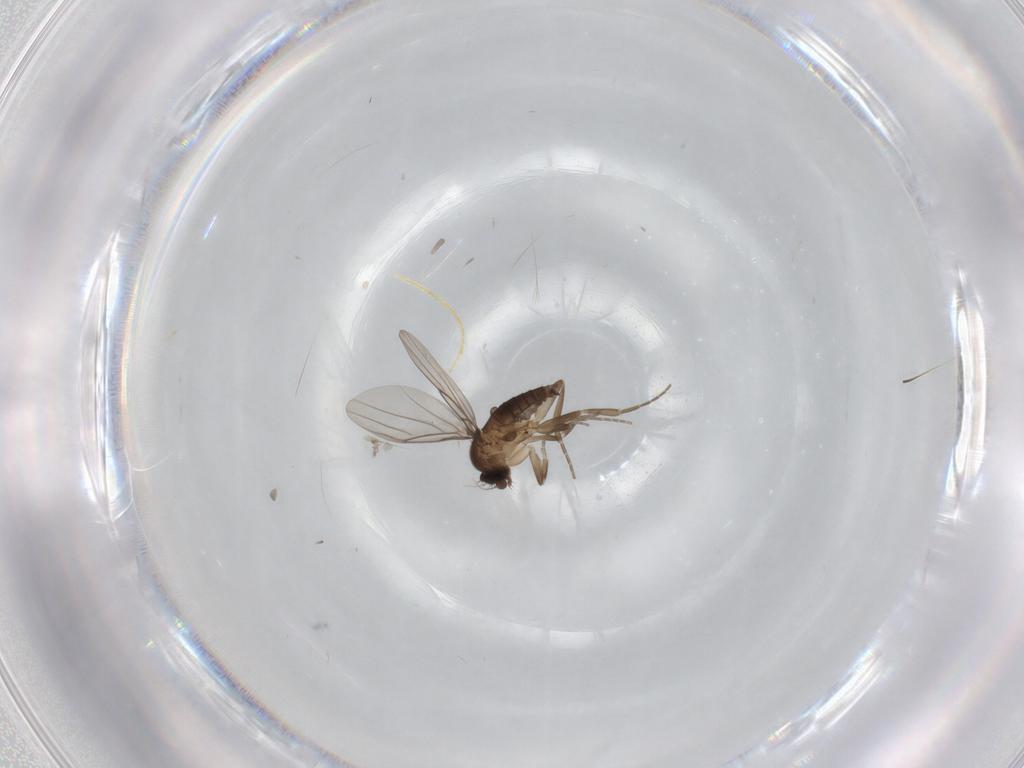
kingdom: Animalia
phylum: Arthropoda
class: Insecta
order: Diptera
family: Phoridae
